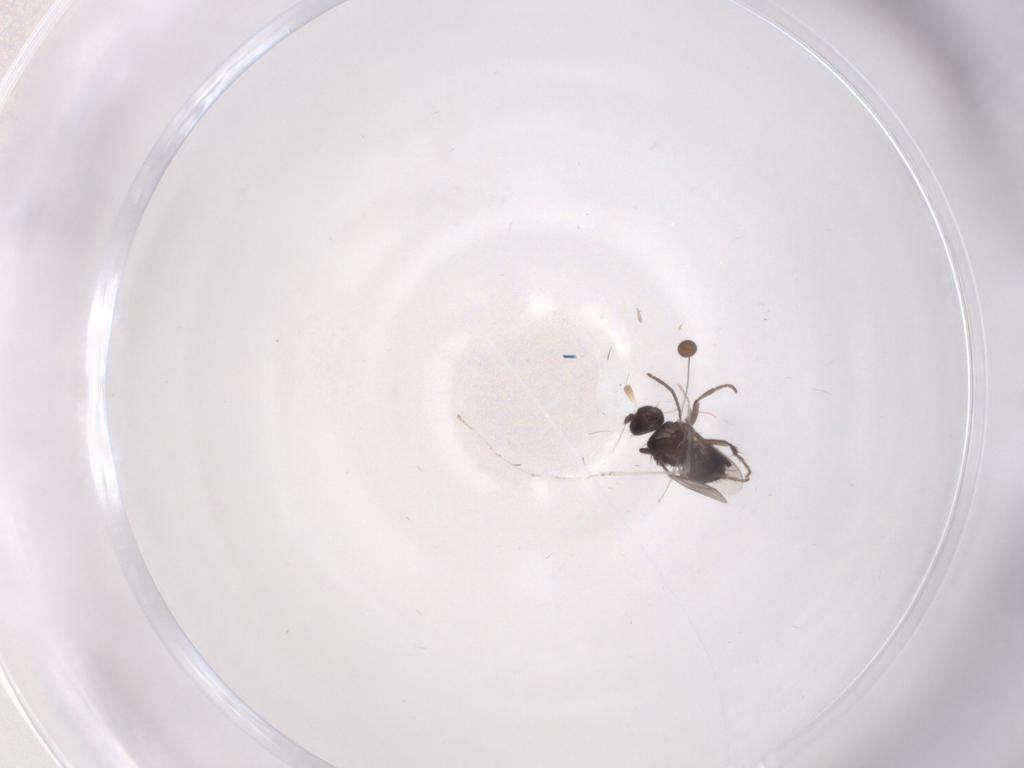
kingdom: Animalia
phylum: Arthropoda
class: Insecta
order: Diptera
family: Phoridae
